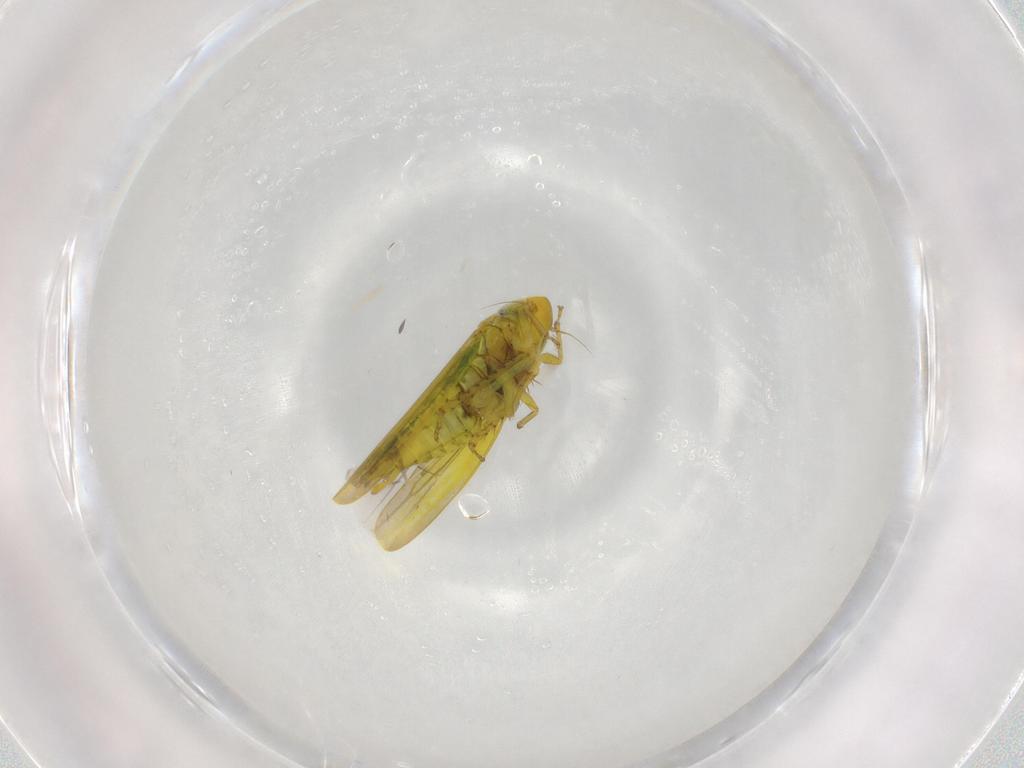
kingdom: Animalia
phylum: Arthropoda
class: Insecta
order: Hemiptera
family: Cicadellidae
